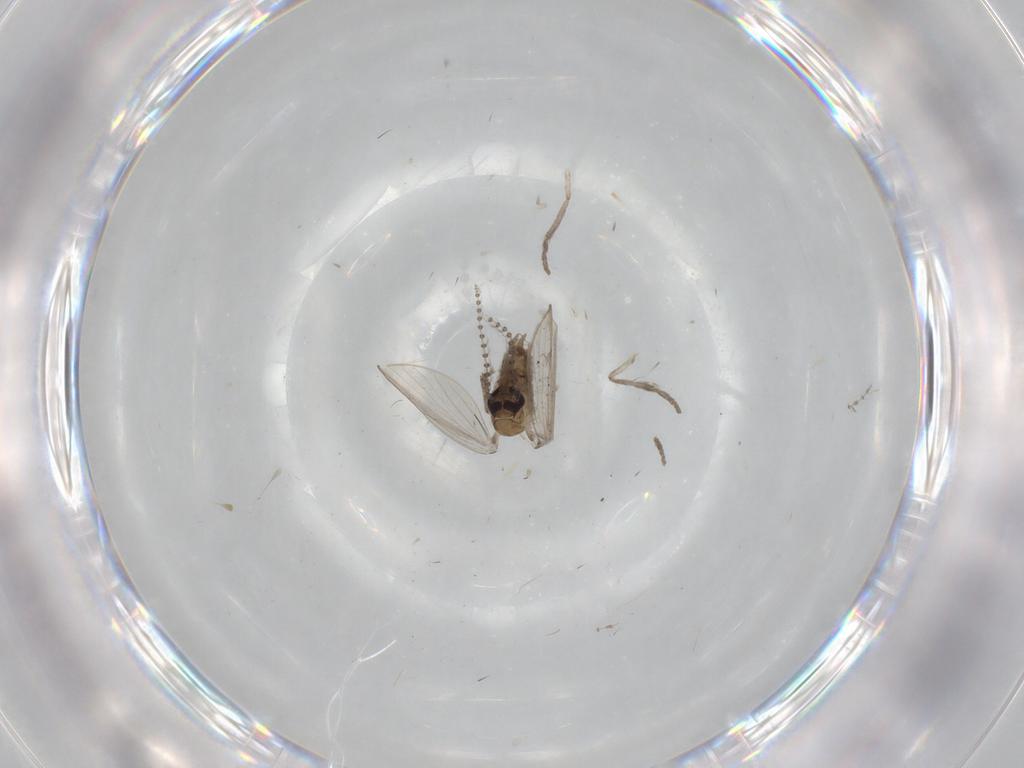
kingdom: Animalia
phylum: Arthropoda
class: Insecta
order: Diptera
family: Psychodidae
